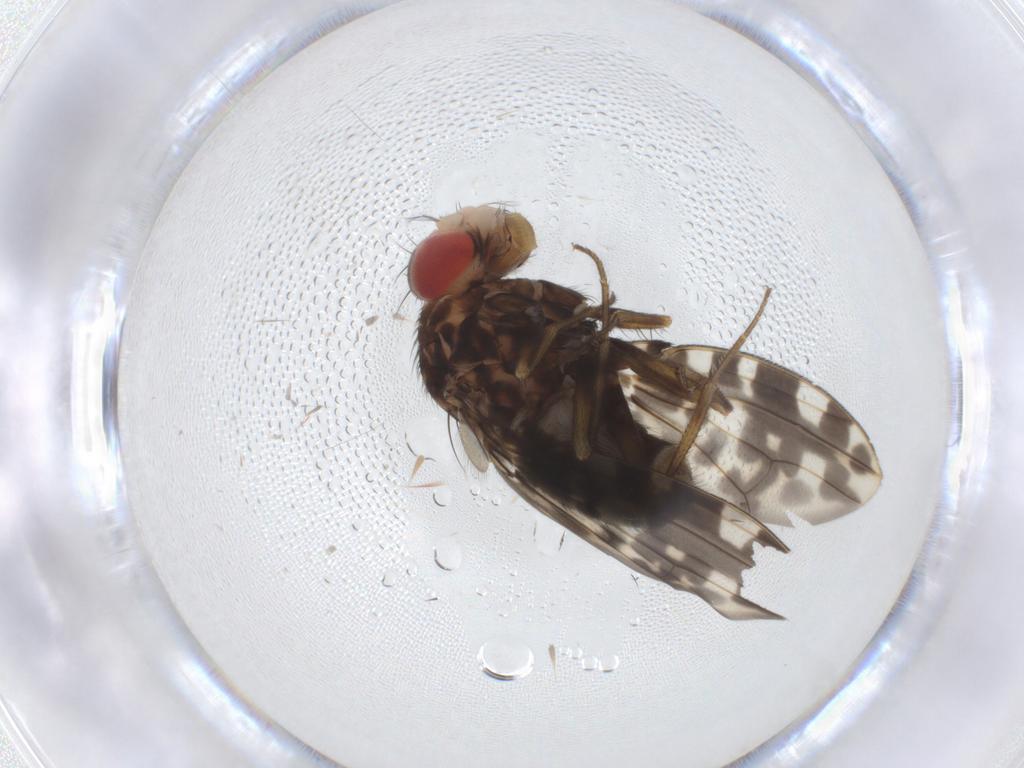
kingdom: Animalia
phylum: Arthropoda
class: Insecta
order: Diptera
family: Drosophilidae
